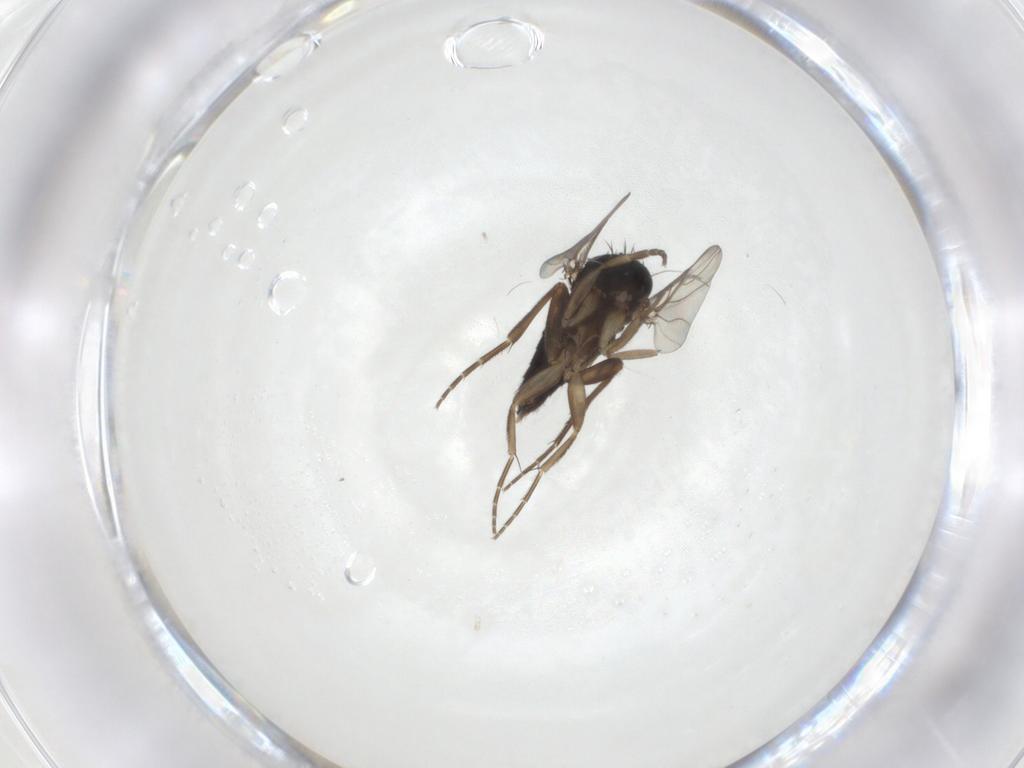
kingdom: Animalia
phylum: Arthropoda
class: Insecta
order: Diptera
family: Phoridae
